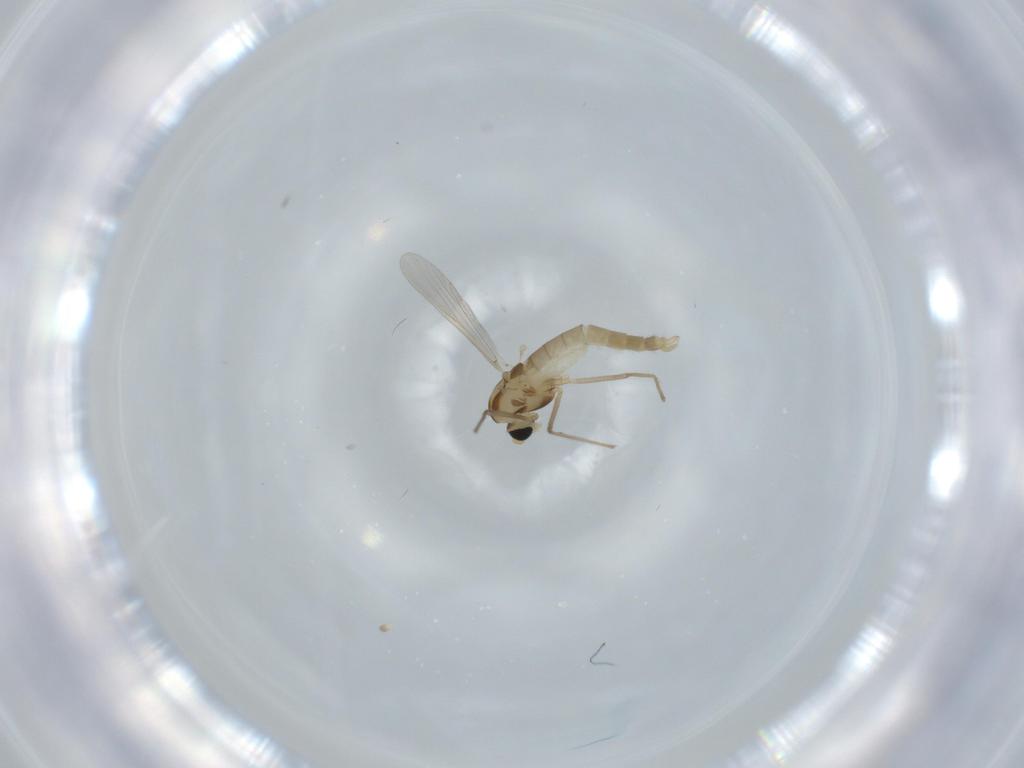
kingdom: Animalia
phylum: Arthropoda
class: Insecta
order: Diptera
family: Chironomidae
